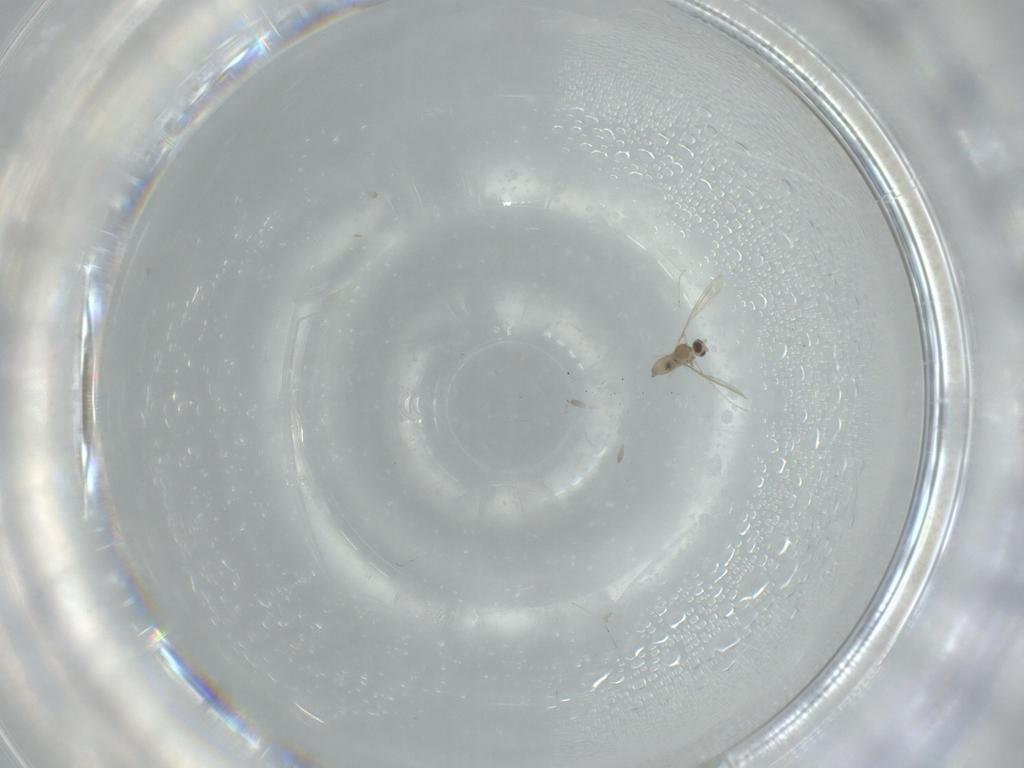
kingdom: Animalia
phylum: Arthropoda
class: Insecta
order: Diptera
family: Cecidomyiidae
